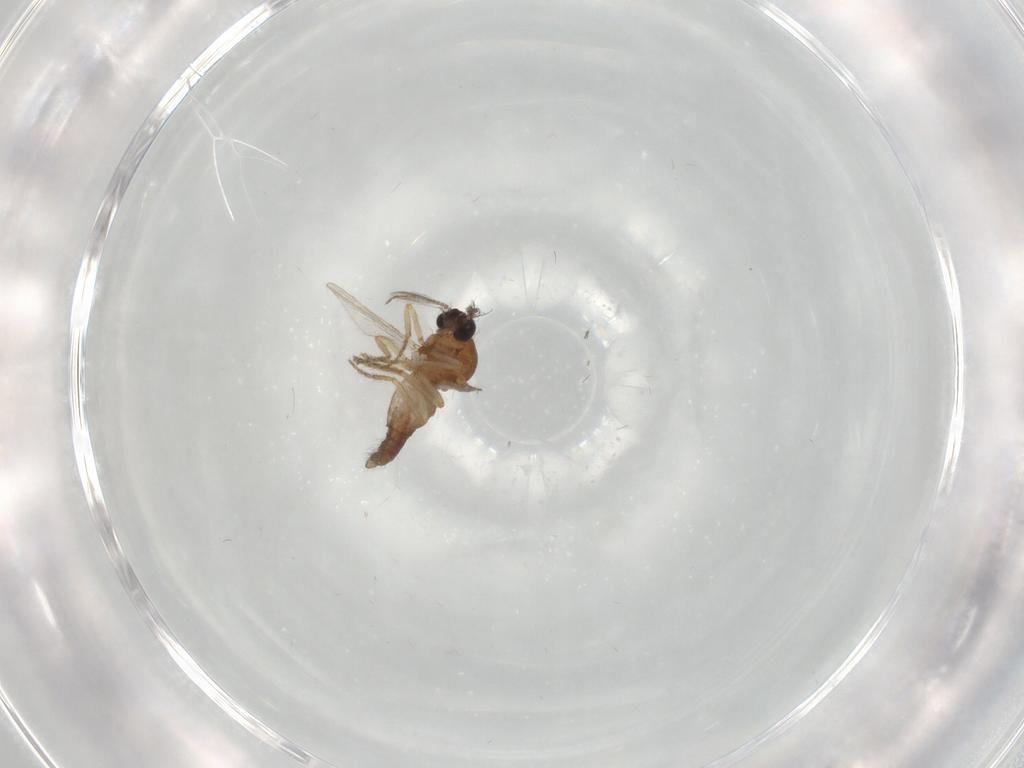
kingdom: Animalia
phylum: Arthropoda
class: Insecta
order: Diptera
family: Ceratopogonidae
